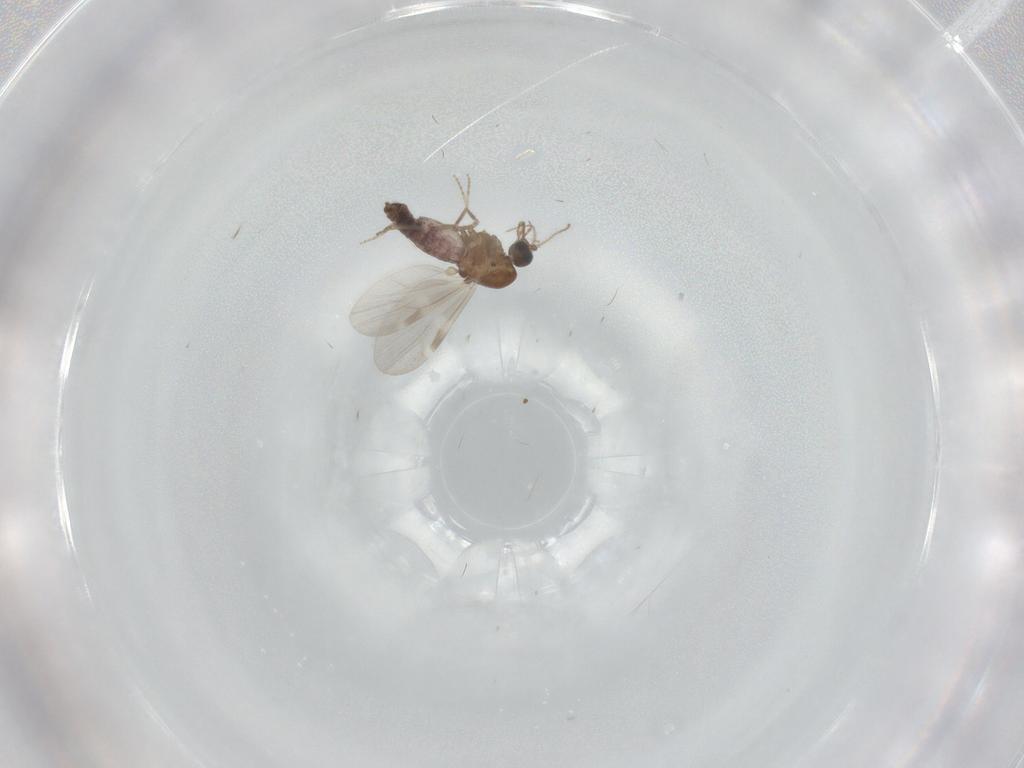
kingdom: Animalia
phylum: Arthropoda
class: Insecta
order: Diptera
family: Ceratopogonidae
